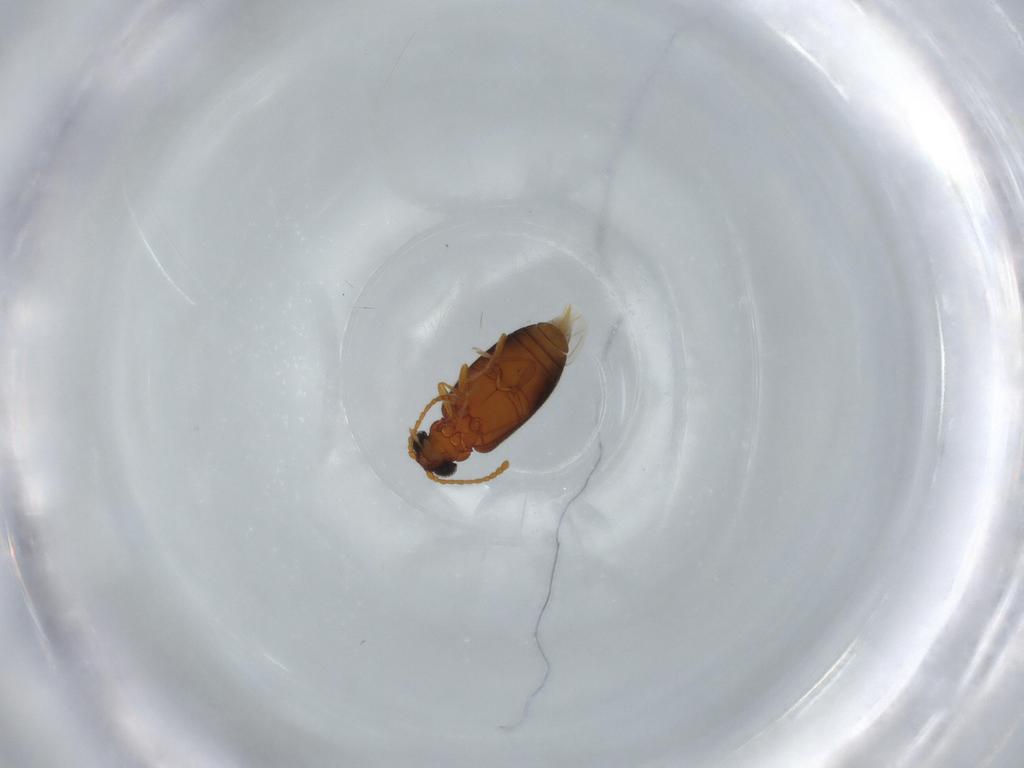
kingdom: Animalia
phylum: Arthropoda
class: Insecta
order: Coleoptera
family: Aderidae
